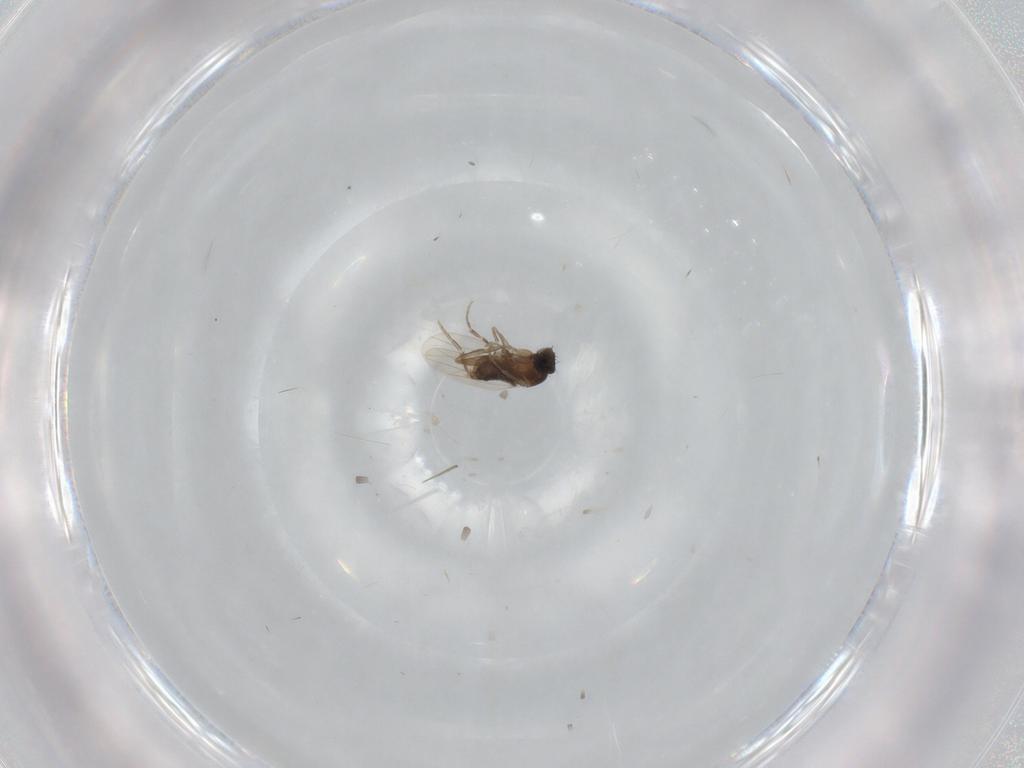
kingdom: Animalia
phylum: Arthropoda
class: Insecta
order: Diptera
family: Phoridae
